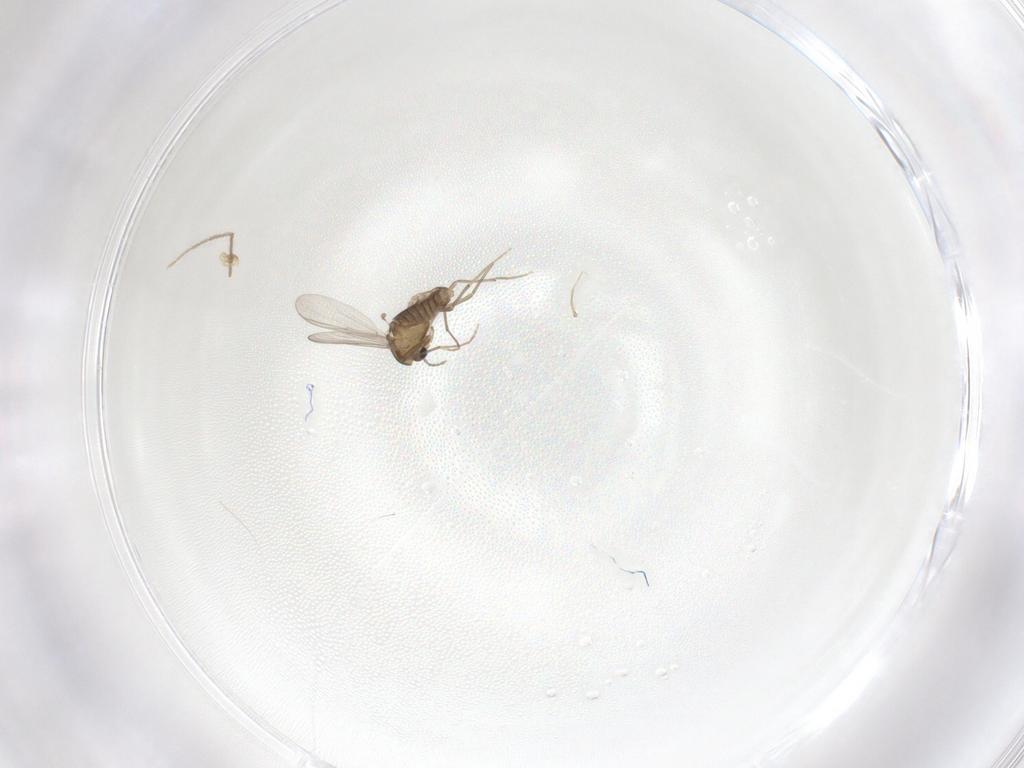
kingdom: Animalia
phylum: Arthropoda
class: Insecta
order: Diptera
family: Chironomidae
